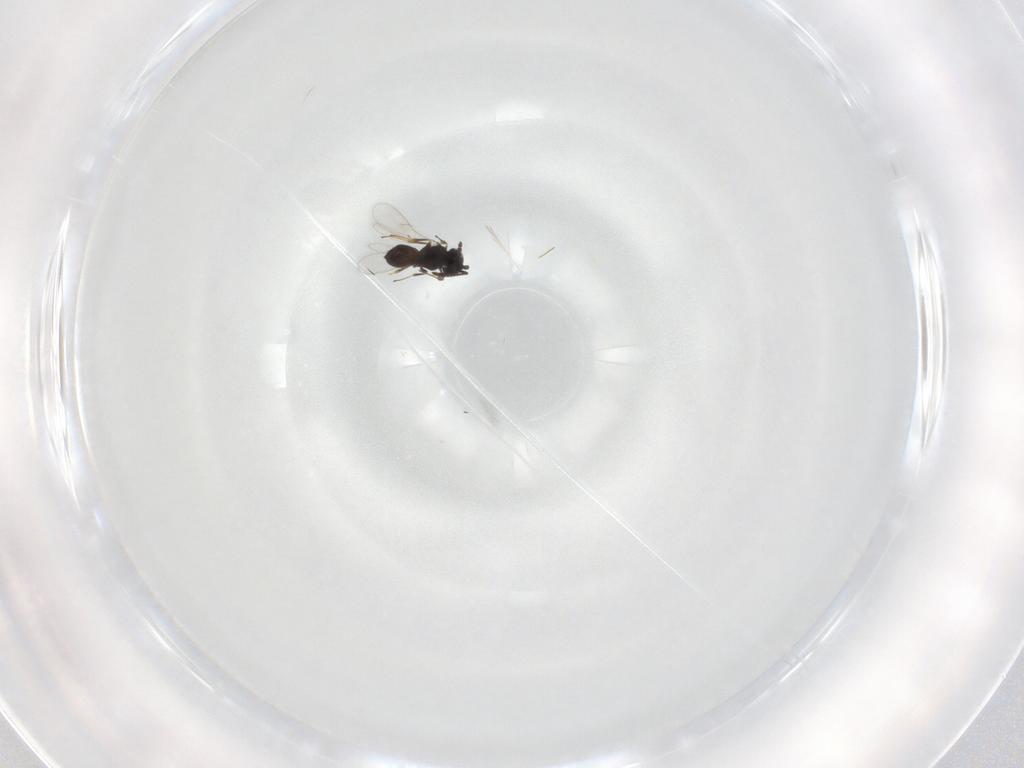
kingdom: Animalia
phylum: Arthropoda
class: Insecta
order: Hymenoptera
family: Scelionidae
